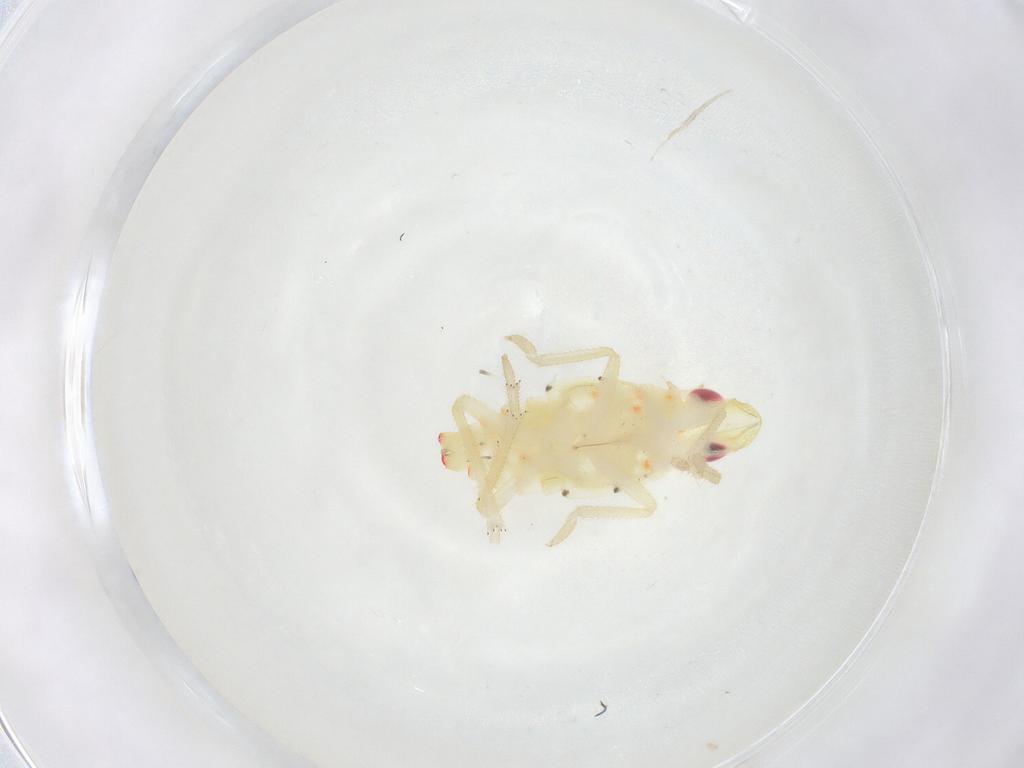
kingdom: Animalia
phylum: Arthropoda
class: Insecta
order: Hemiptera
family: Tropiduchidae
